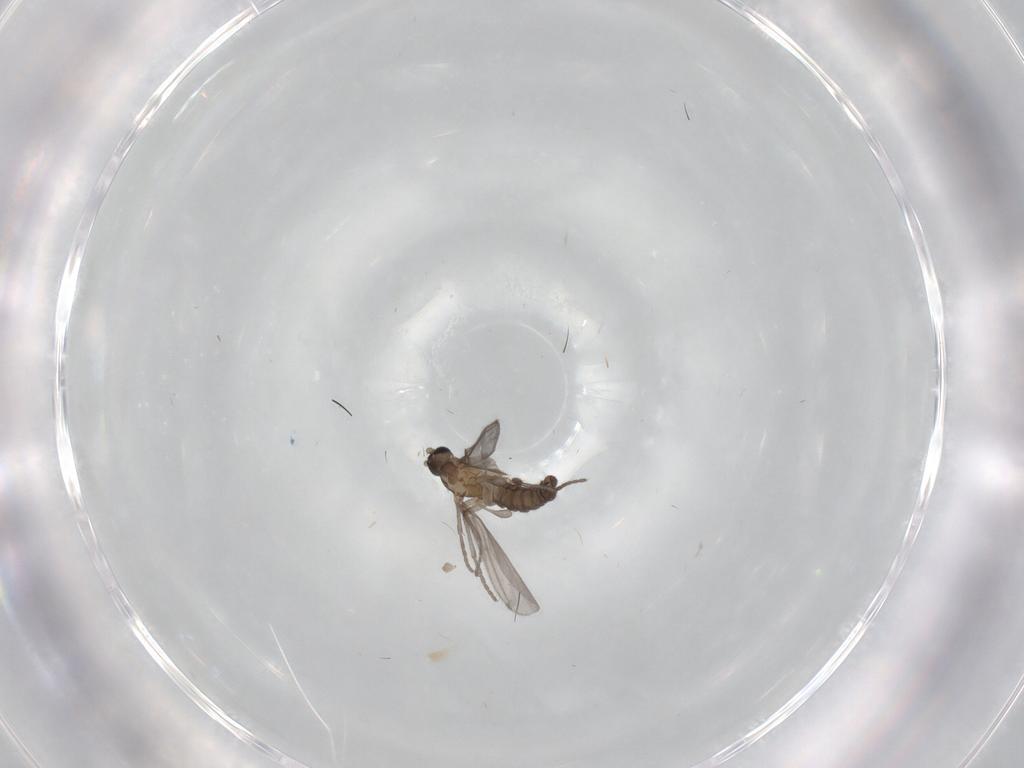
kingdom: Animalia
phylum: Arthropoda
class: Insecta
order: Diptera
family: Sciaridae
